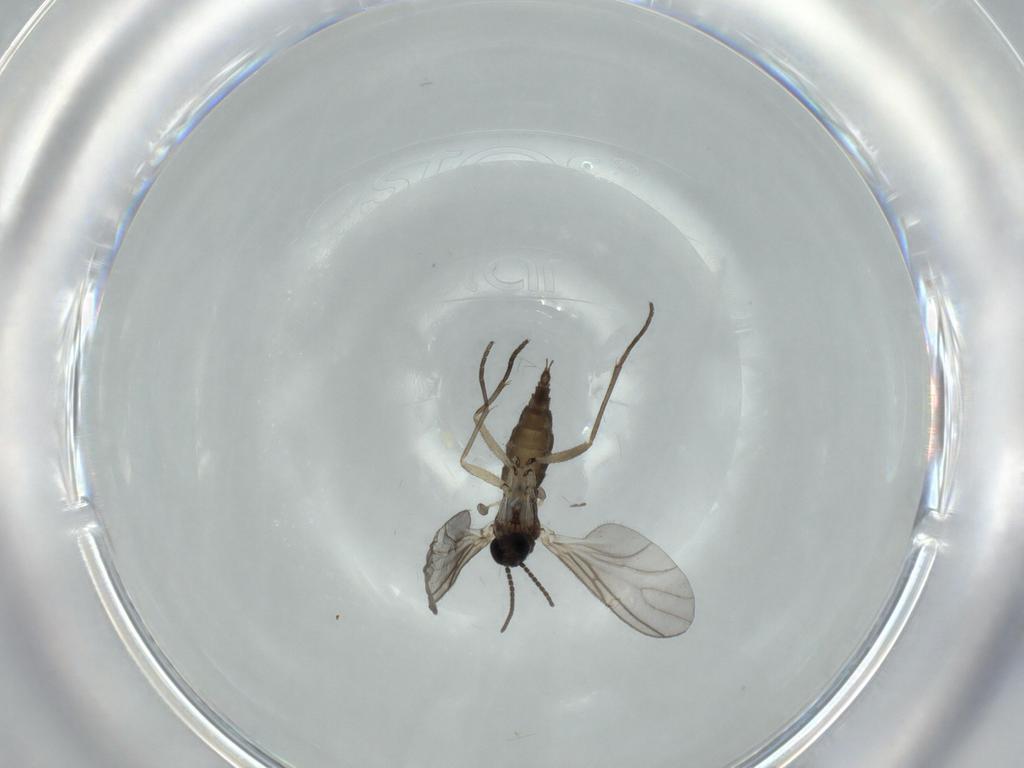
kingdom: Animalia
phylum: Arthropoda
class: Insecta
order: Diptera
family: Sciaridae
